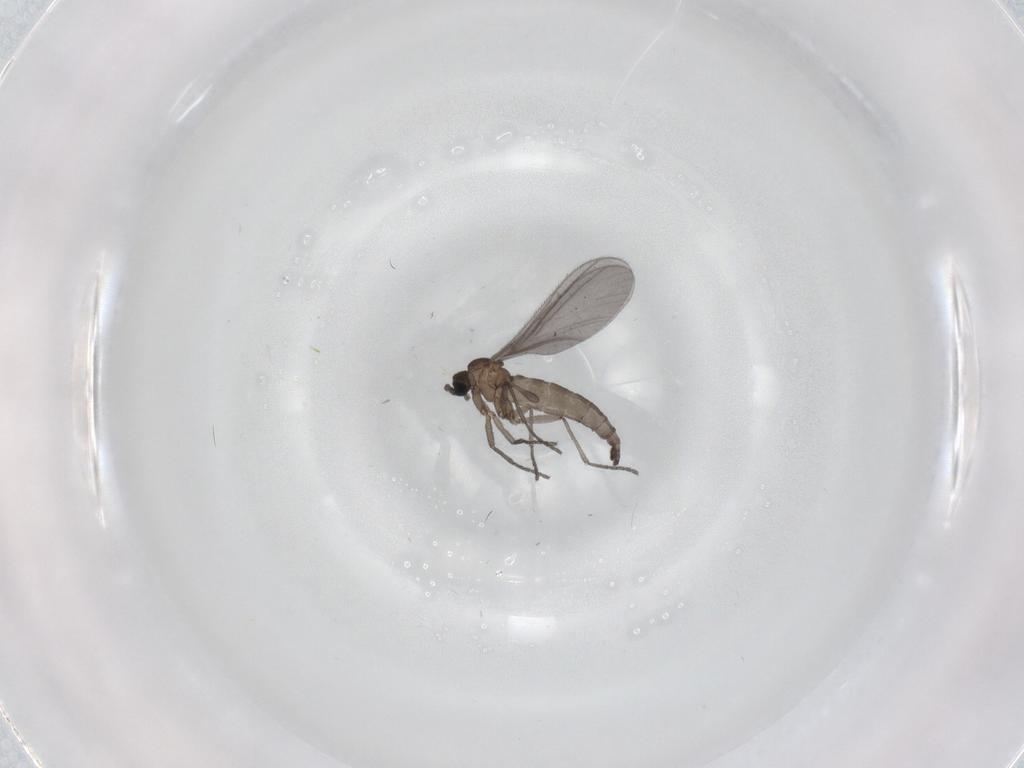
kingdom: Animalia
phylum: Arthropoda
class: Insecta
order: Diptera
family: Sciaridae
